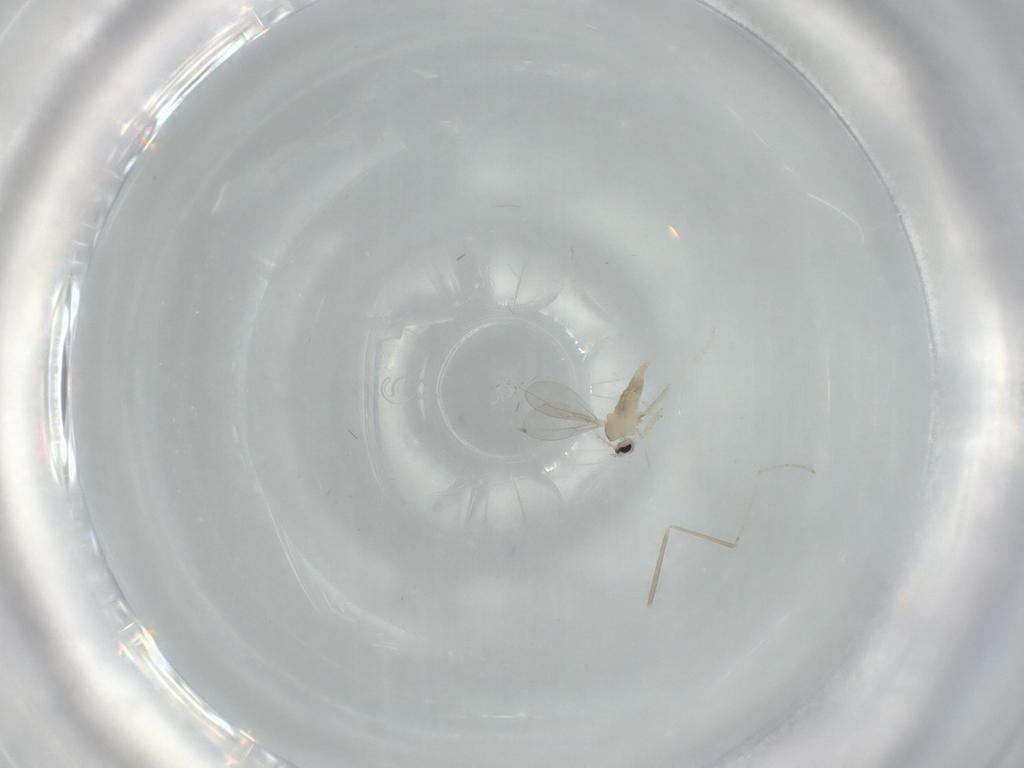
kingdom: Animalia
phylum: Arthropoda
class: Insecta
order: Diptera
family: Cecidomyiidae
